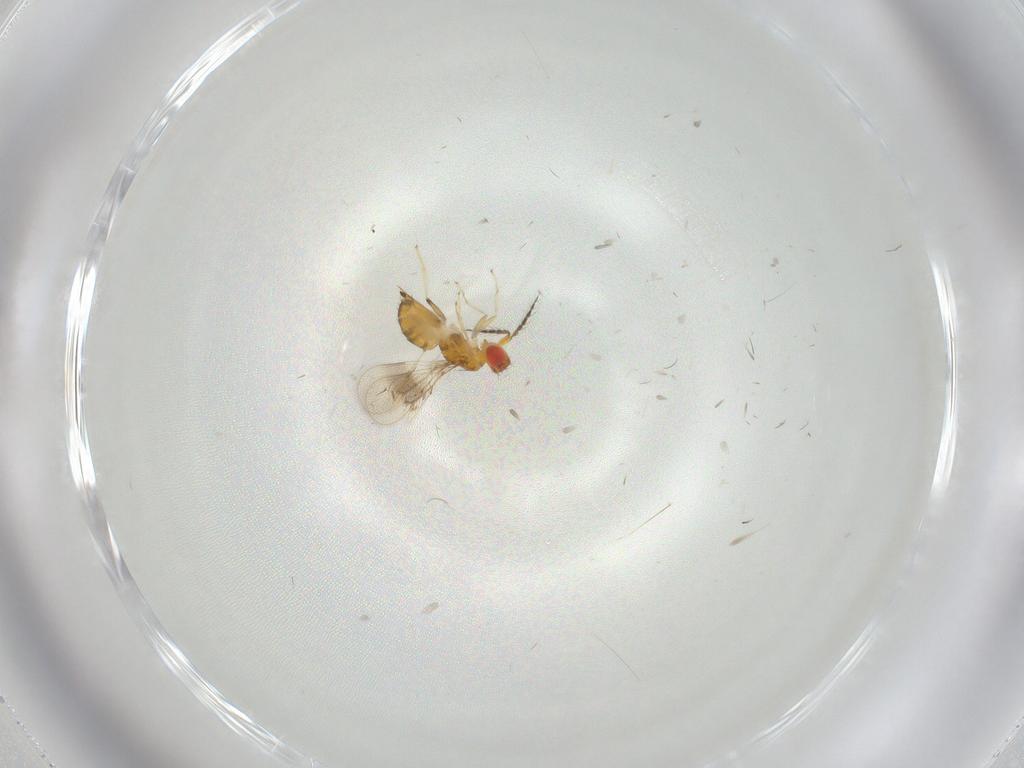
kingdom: Animalia
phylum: Arthropoda
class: Insecta
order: Hymenoptera
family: Eulophidae
